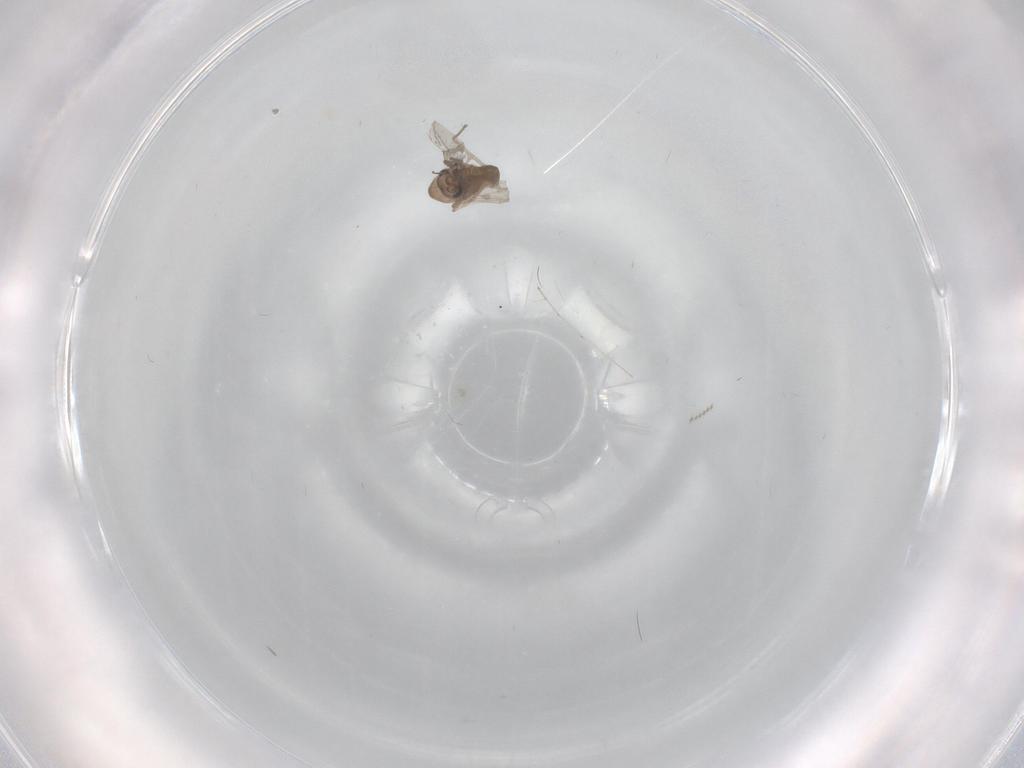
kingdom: Animalia
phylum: Arthropoda
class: Insecta
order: Diptera
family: Chironomidae
